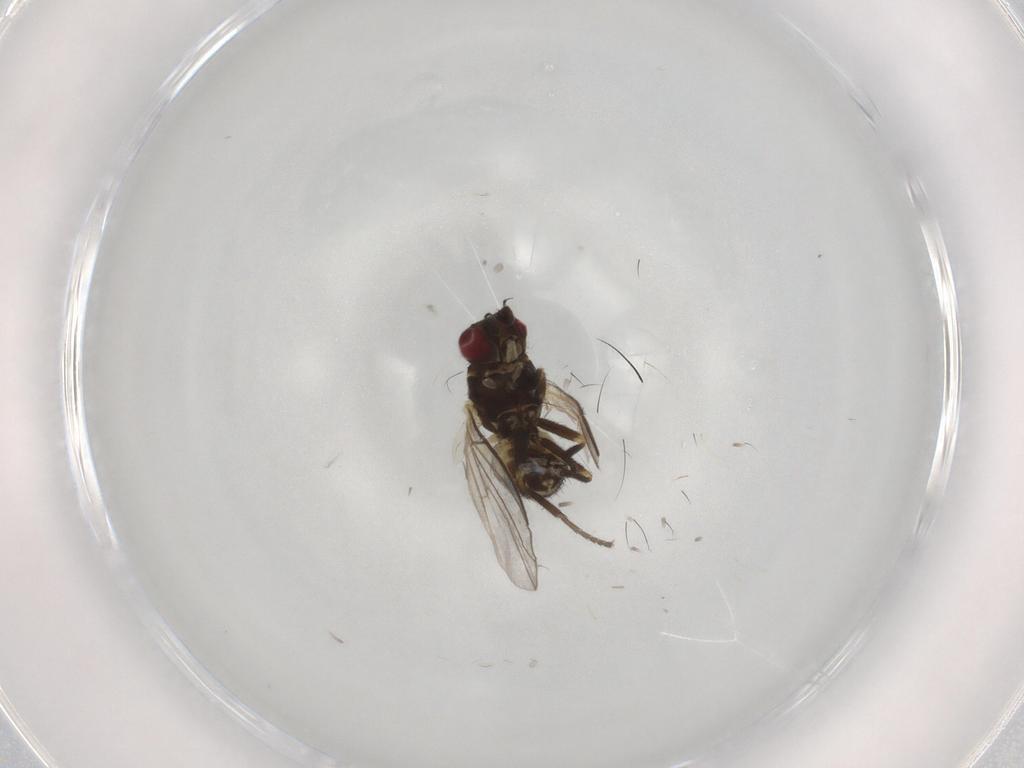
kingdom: Animalia
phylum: Arthropoda
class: Insecta
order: Diptera
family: Agromyzidae
